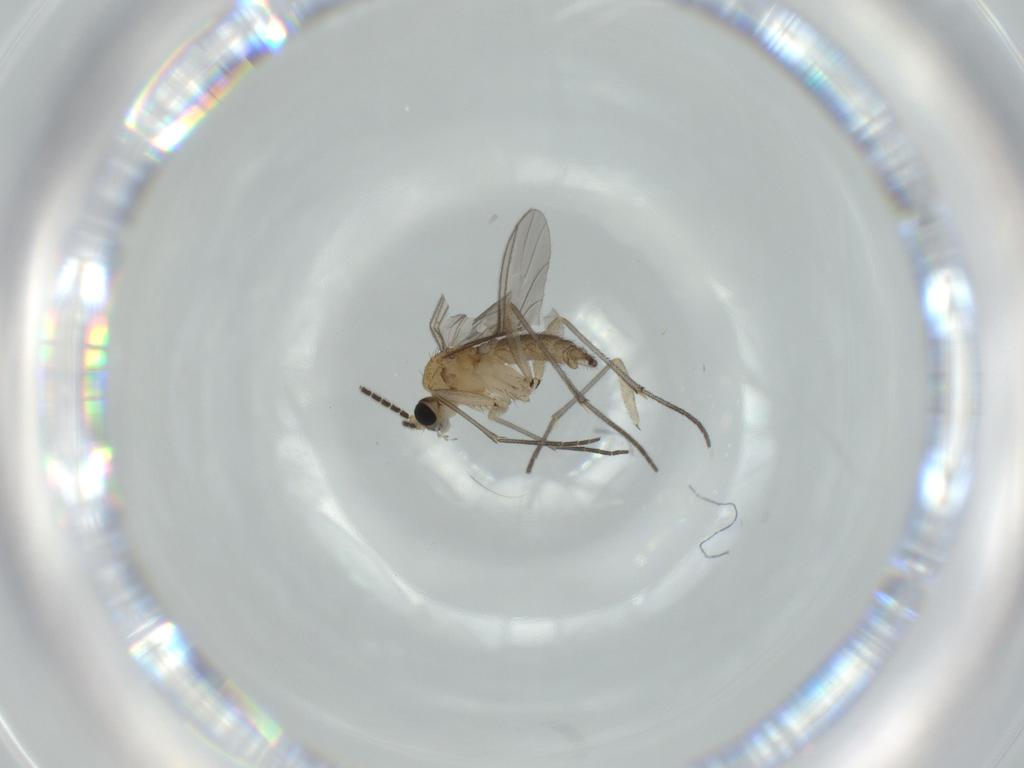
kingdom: Animalia
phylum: Arthropoda
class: Insecta
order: Diptera
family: Sciaridae
